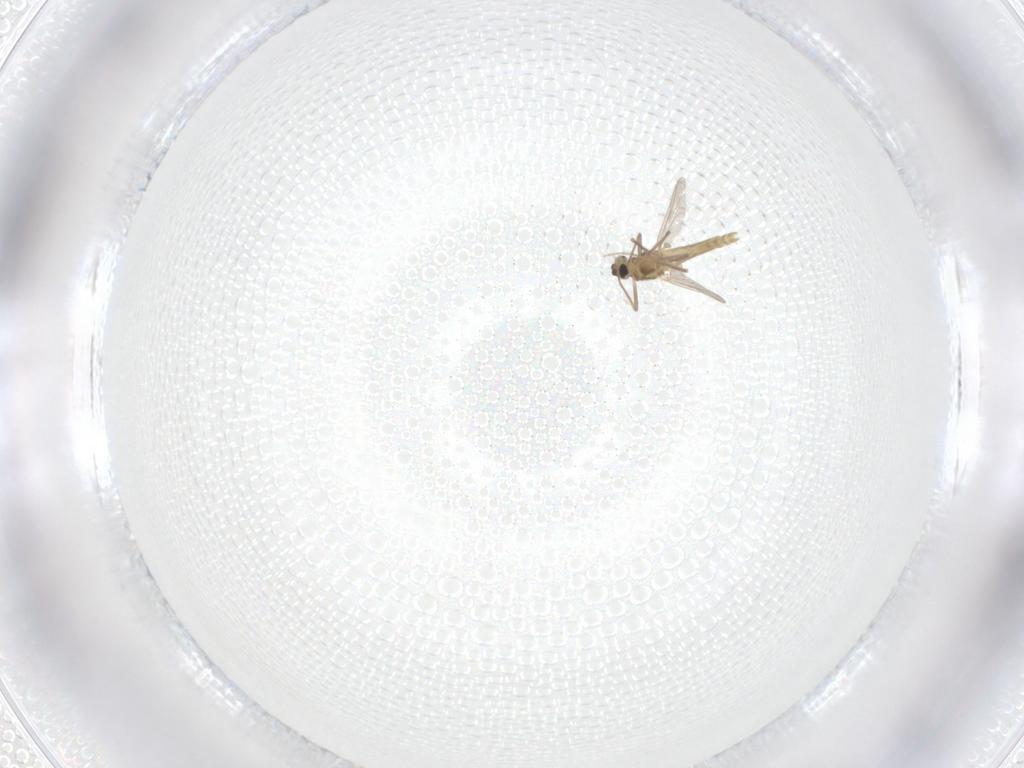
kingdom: Animalia
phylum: Arthropoda
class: Insecta
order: Diptera
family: Chironomidae
